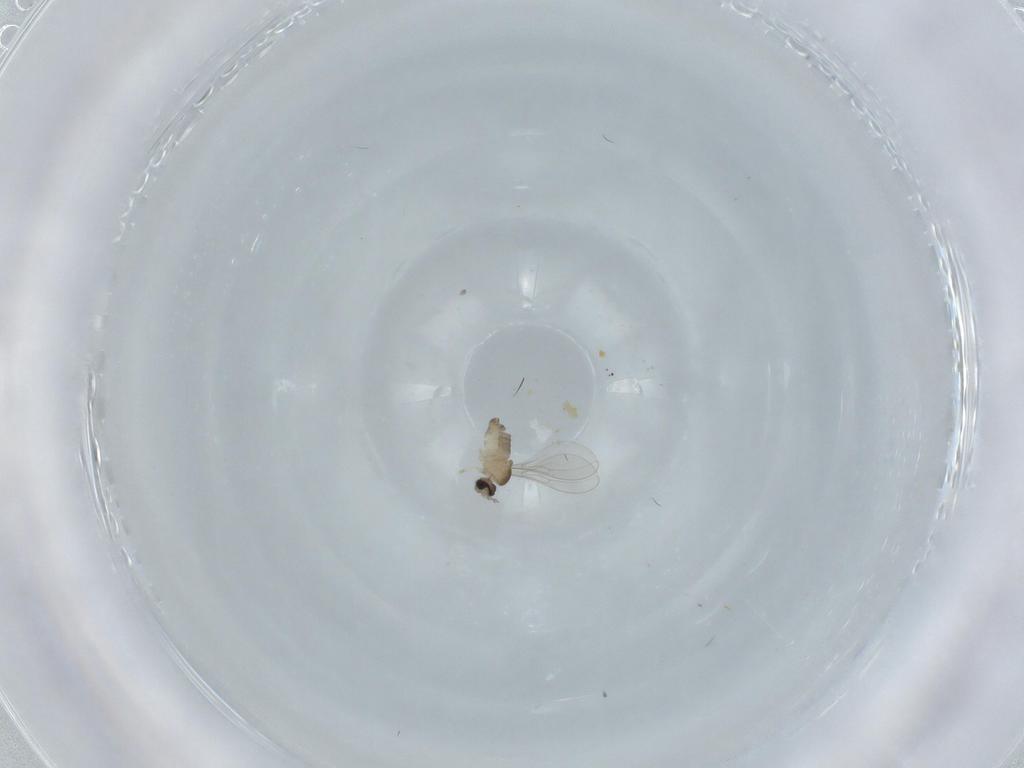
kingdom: Animalia
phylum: Arthropoda
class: Insecta
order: Diptera
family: Cecidomyiidae
